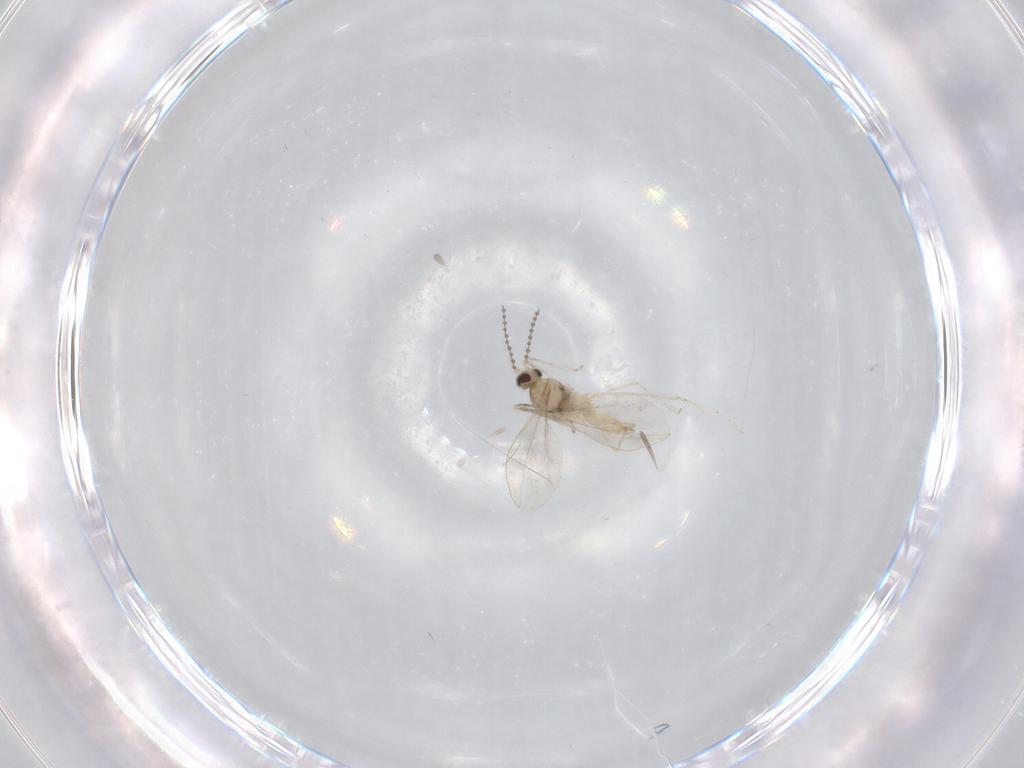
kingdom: Animalia
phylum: Arthropoda
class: Insecta
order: Diptera
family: Cecidomyiidae
